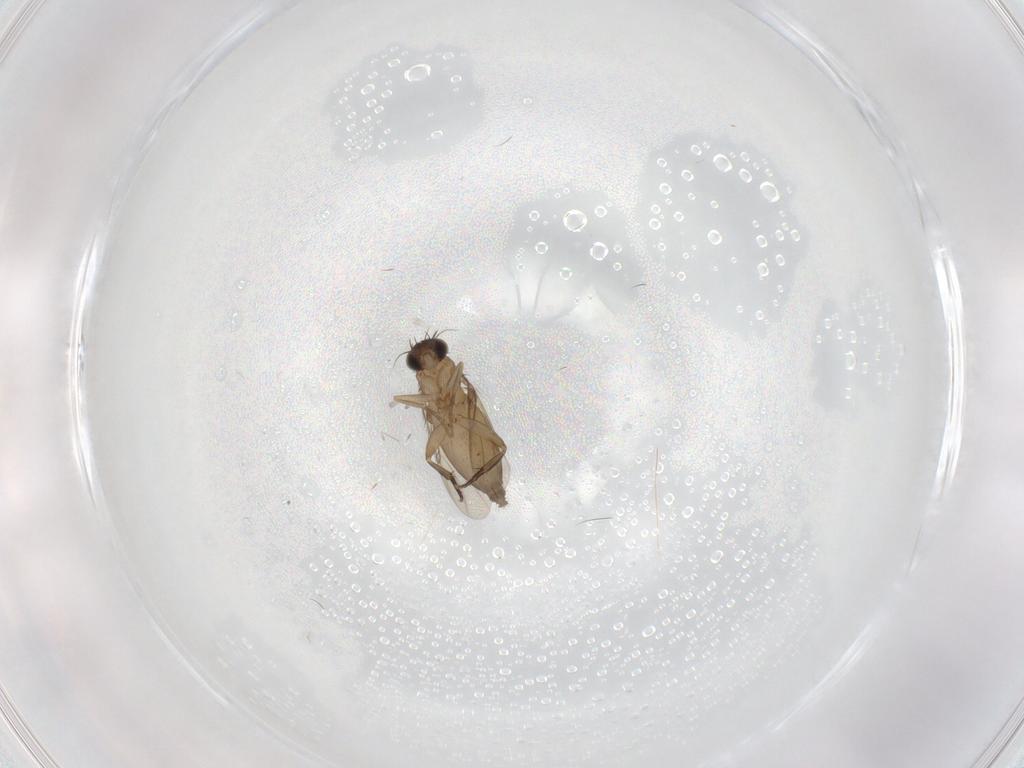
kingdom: Animalia
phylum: Arthropoda
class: Insecta
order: Diptera
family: Phoridae
